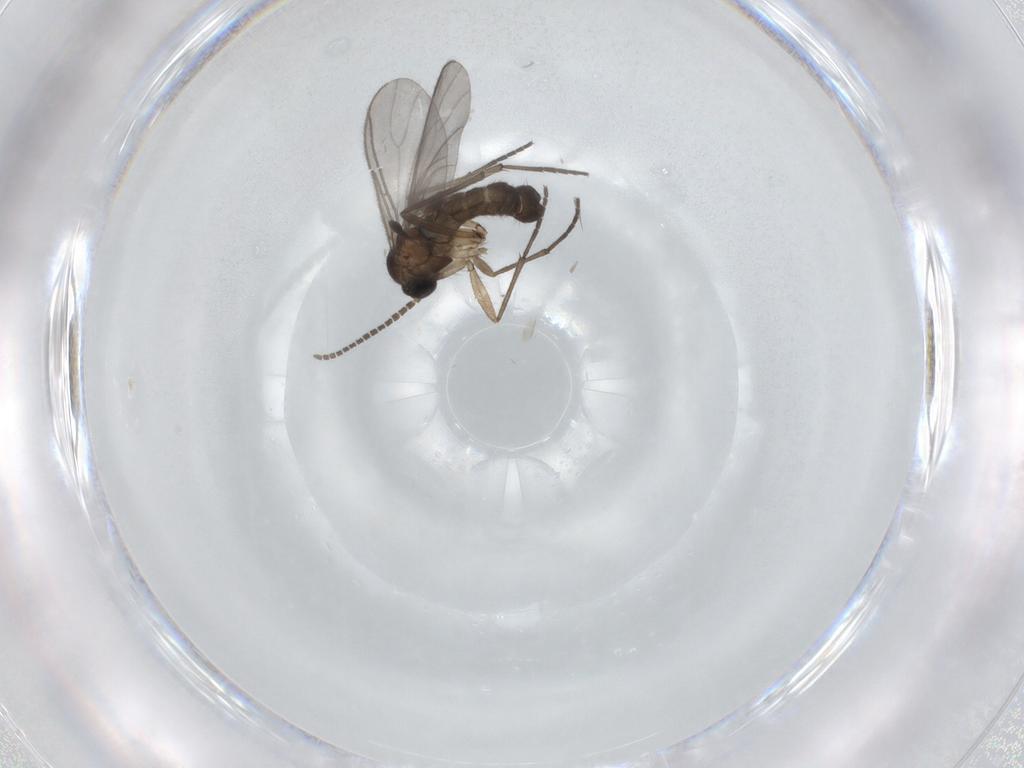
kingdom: Animalia
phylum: Arthropoda
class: Insecta
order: Diptera
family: Sciaridae
